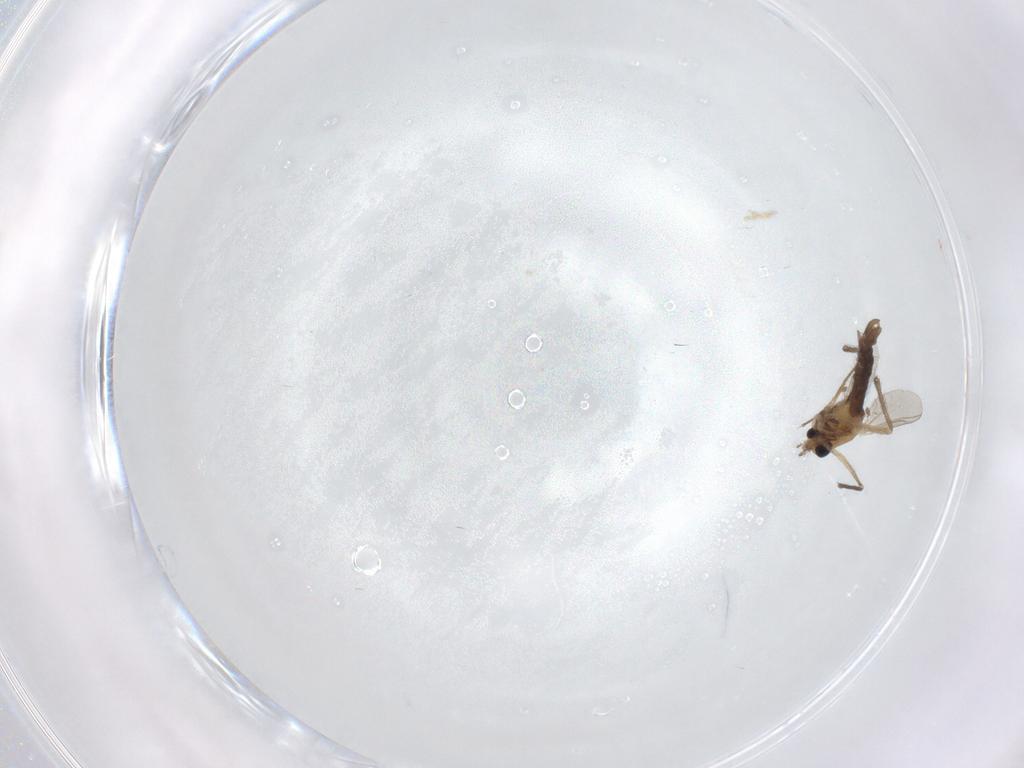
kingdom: Animalia
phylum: Arthropoda
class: Insecta
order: Diptera
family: Chironomidae
